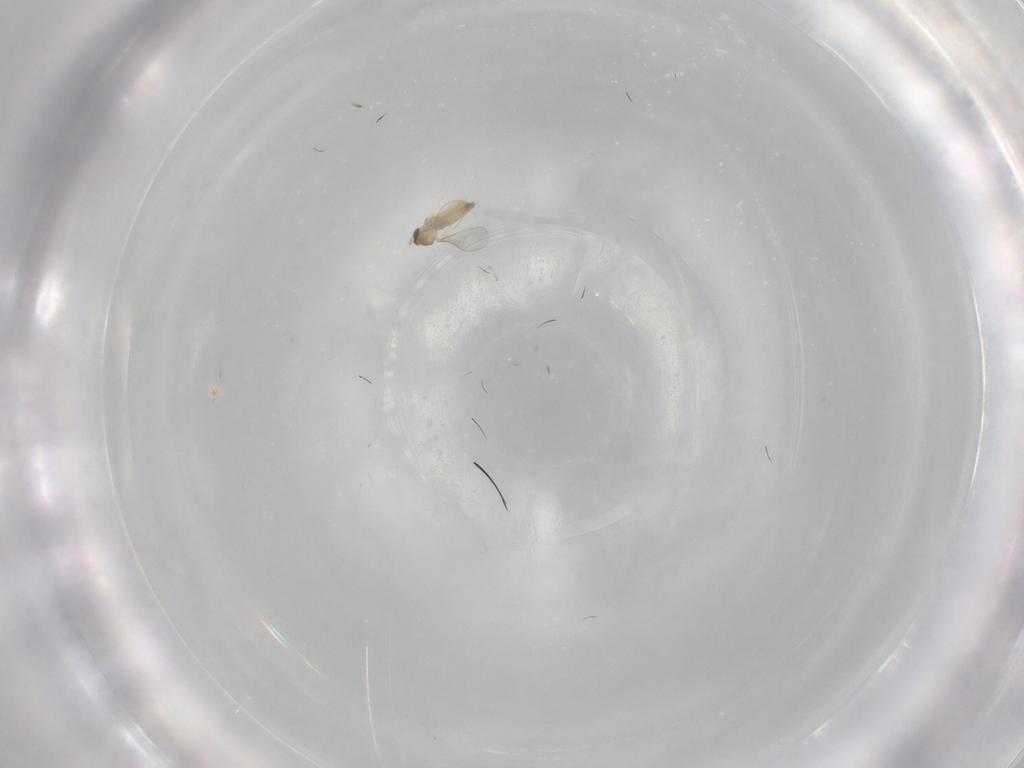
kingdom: Animalia
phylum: Arthropoda
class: Insecta
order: Diptera
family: Cecidomyiidae
